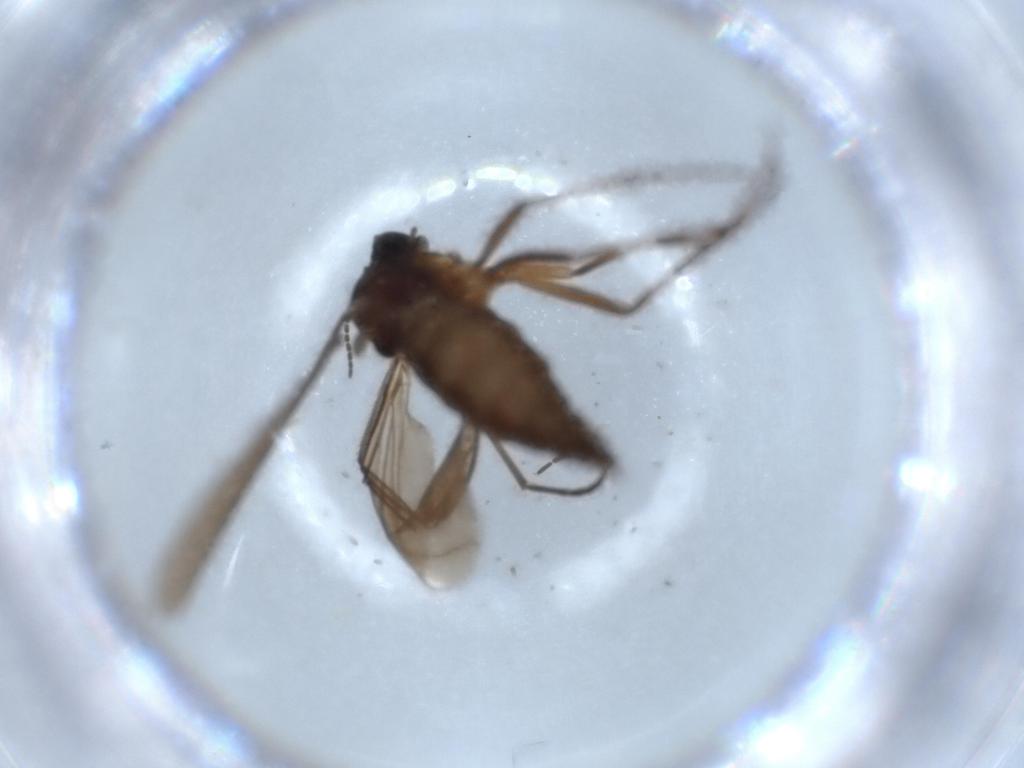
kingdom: Animalia
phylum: Arthropoda
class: Insecta
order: Diptera
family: Sciaridae
